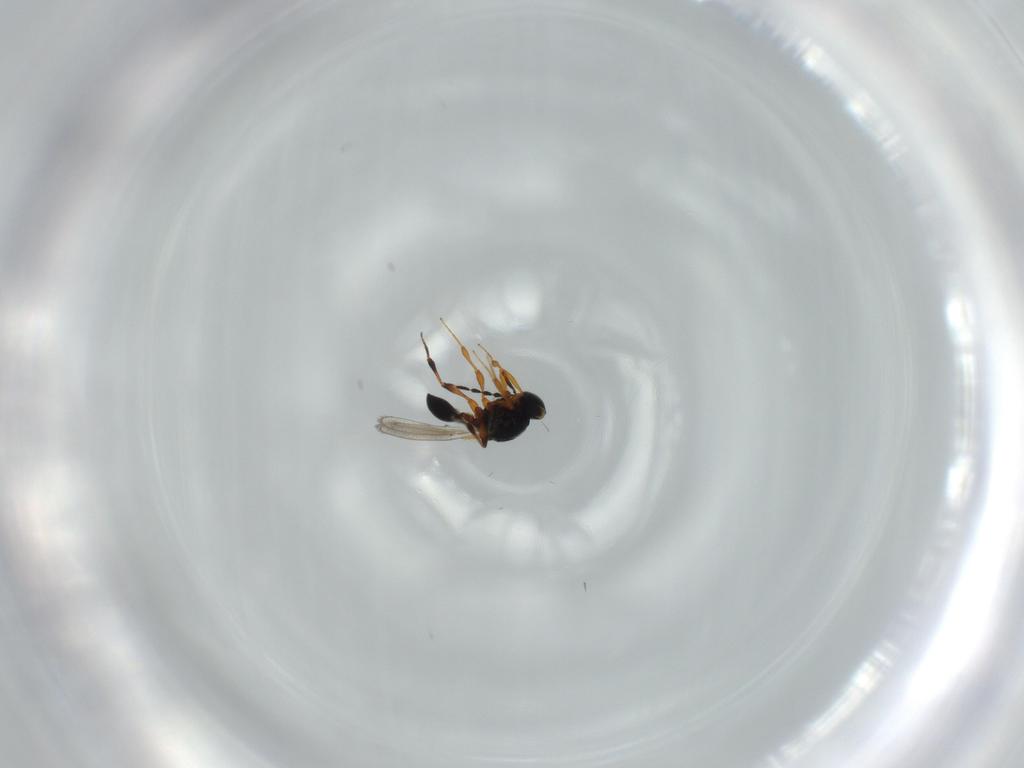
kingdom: Animalia
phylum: Arthropoda
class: Insecta
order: Hymenoptera
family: Platygastridae
